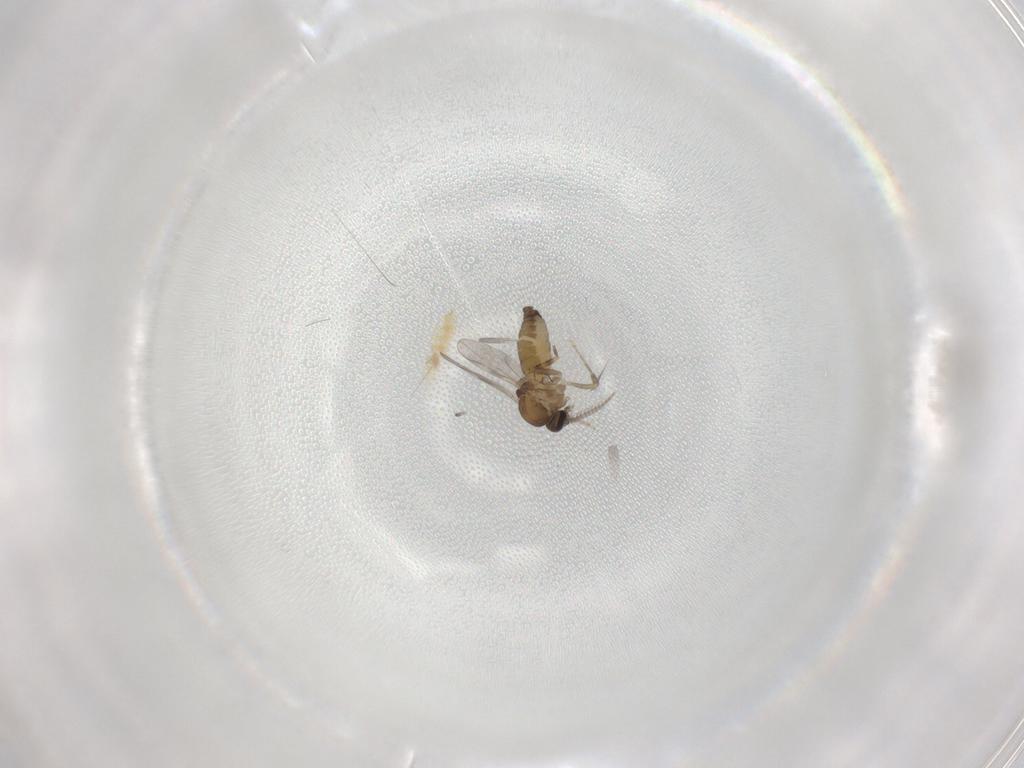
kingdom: Animalia
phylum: Arthropoda
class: Insecta
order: Diptera
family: Ceratopogonidae
